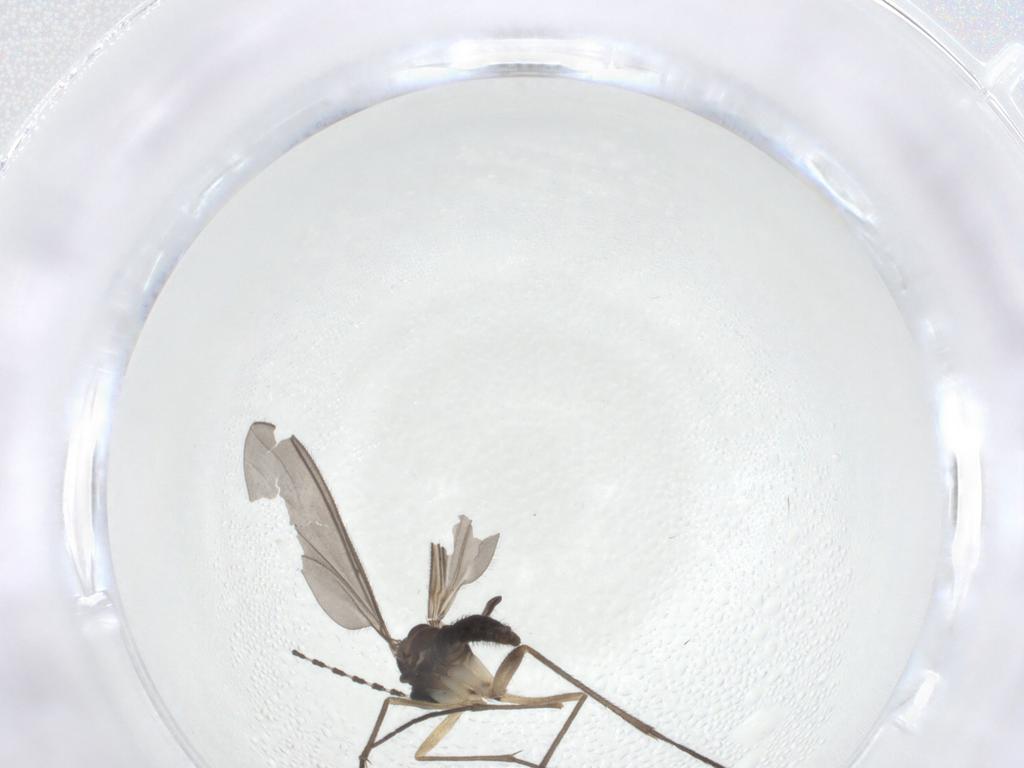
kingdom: Animalia
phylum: Arthropoda
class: Insecta
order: Diptera
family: Sciaridae
